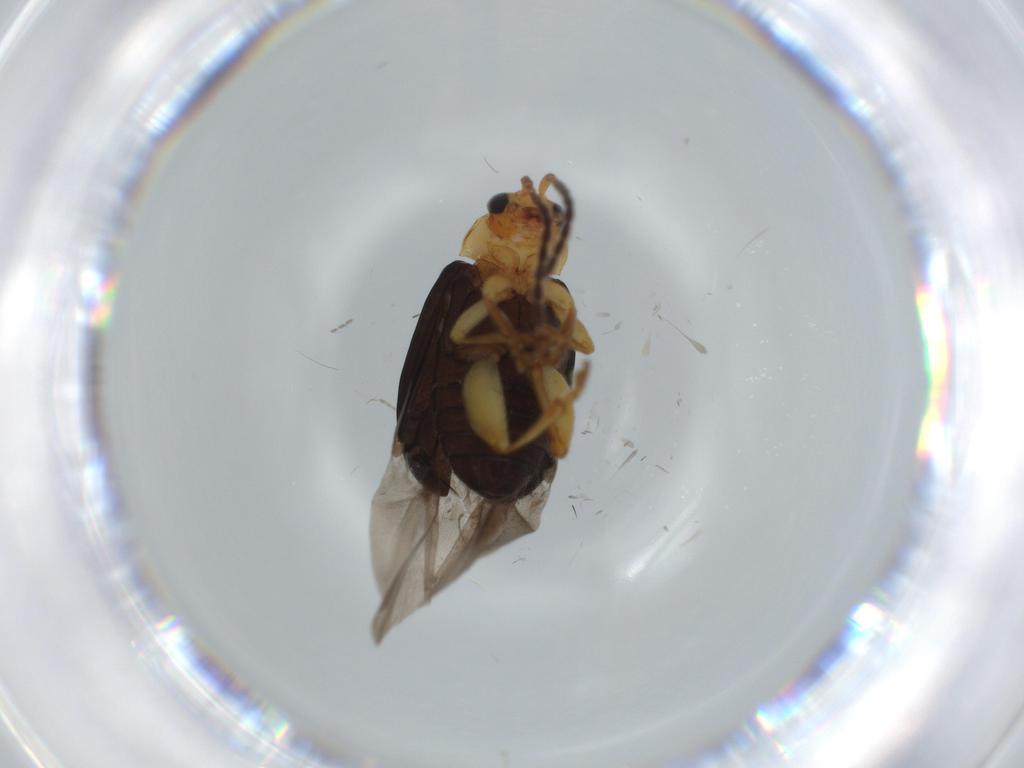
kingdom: Animalia
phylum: Arthropoda
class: Insecta
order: Coleoptera
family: Chrysomelidae
